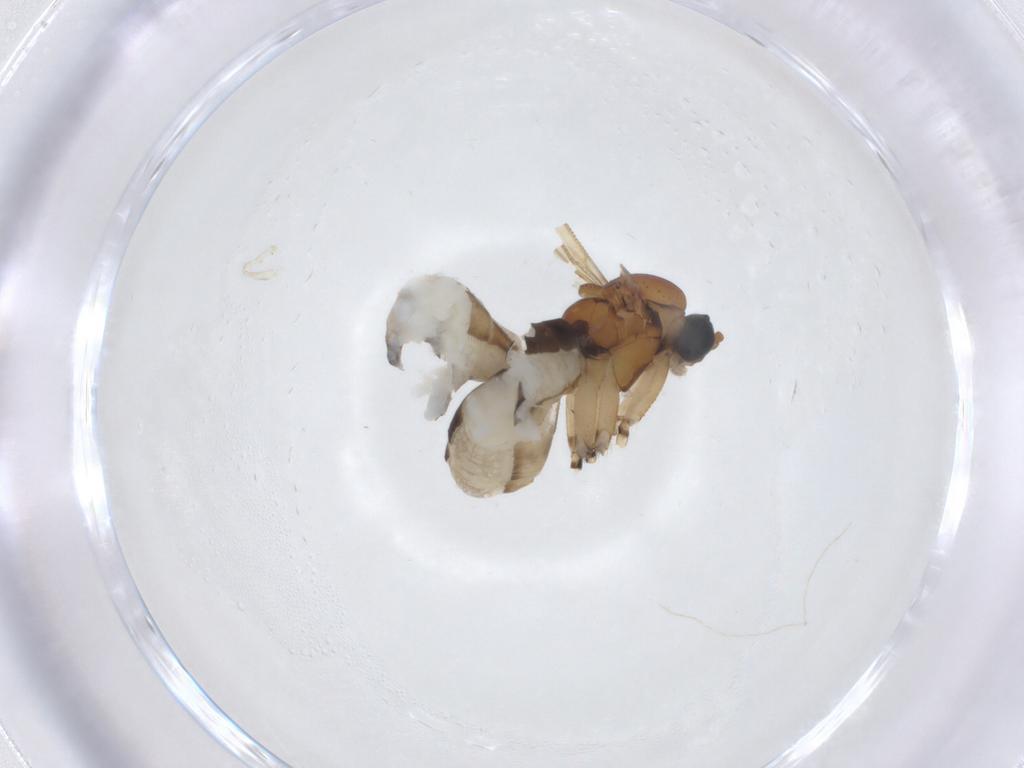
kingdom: Animalia
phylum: Arthropoda
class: Insecta
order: Diptera
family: Sciaridae
